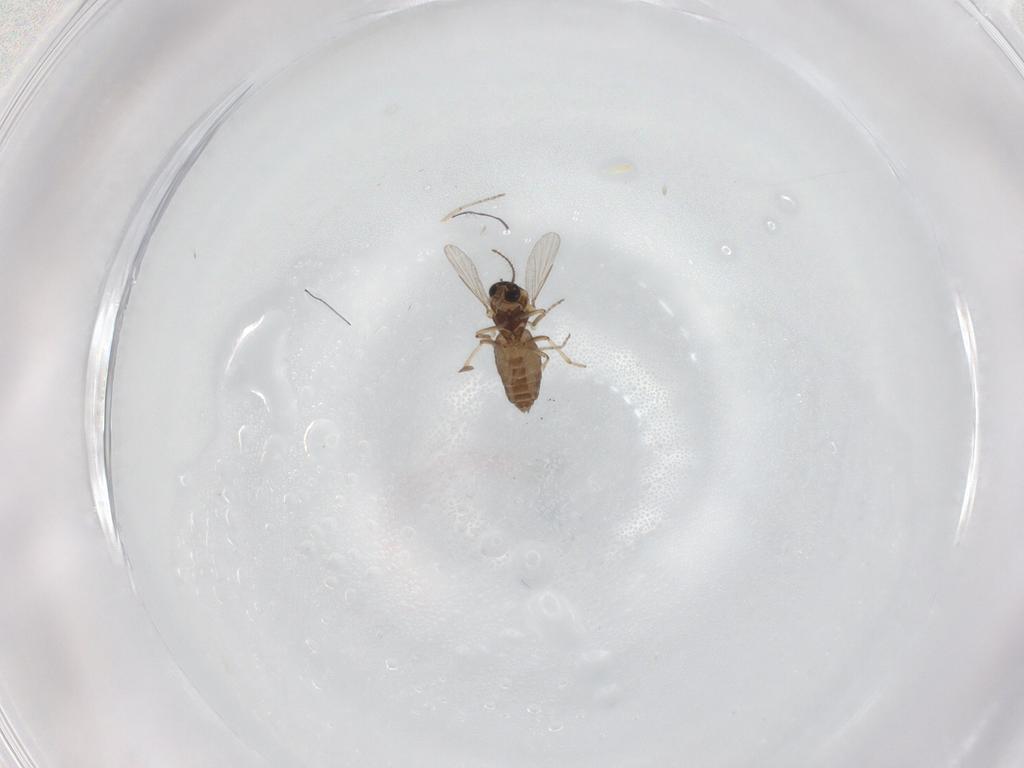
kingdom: Animalia
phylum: Arthropoda
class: Insecta
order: Diptera
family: Ceratopogonidae
